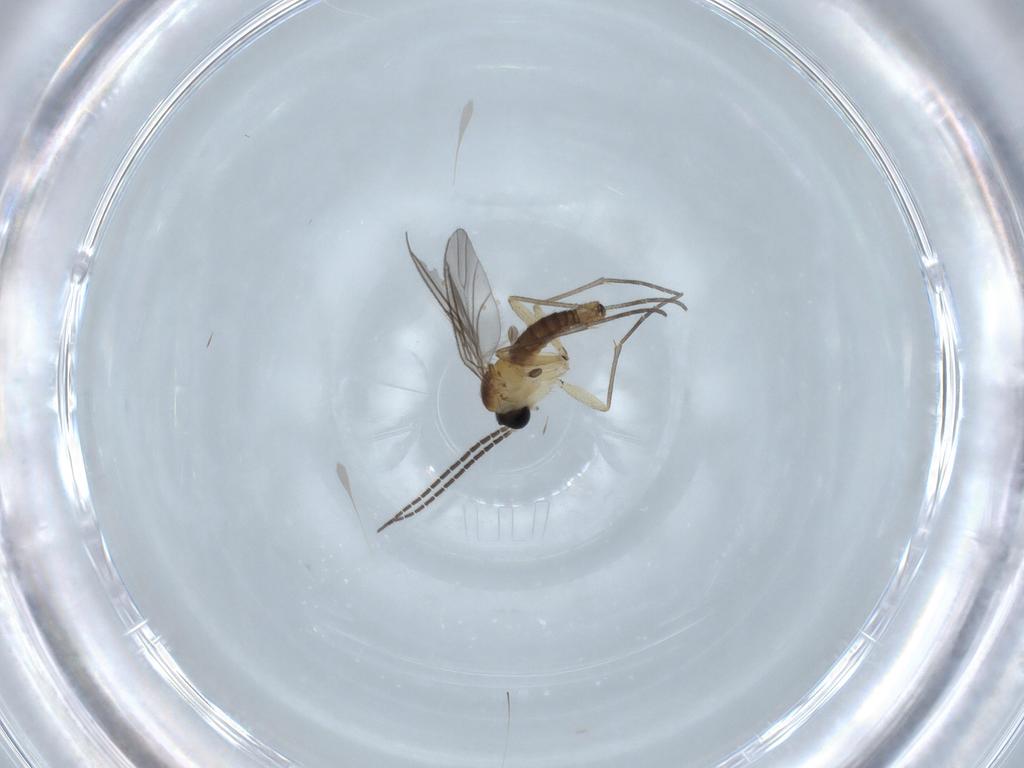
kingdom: Animalia
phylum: Arthropoda
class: Insecta
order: Diptera
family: Sciaridae
